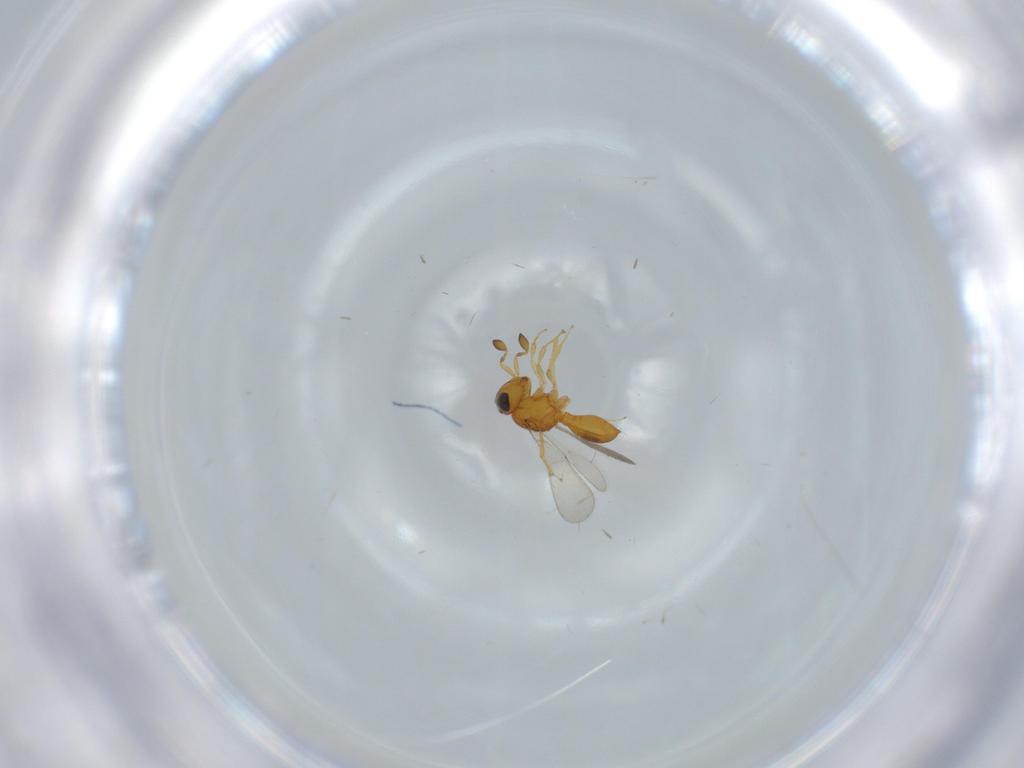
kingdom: Animalia
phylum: Arthropoda
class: Insecta
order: Hymenoptera
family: Scelionidae
